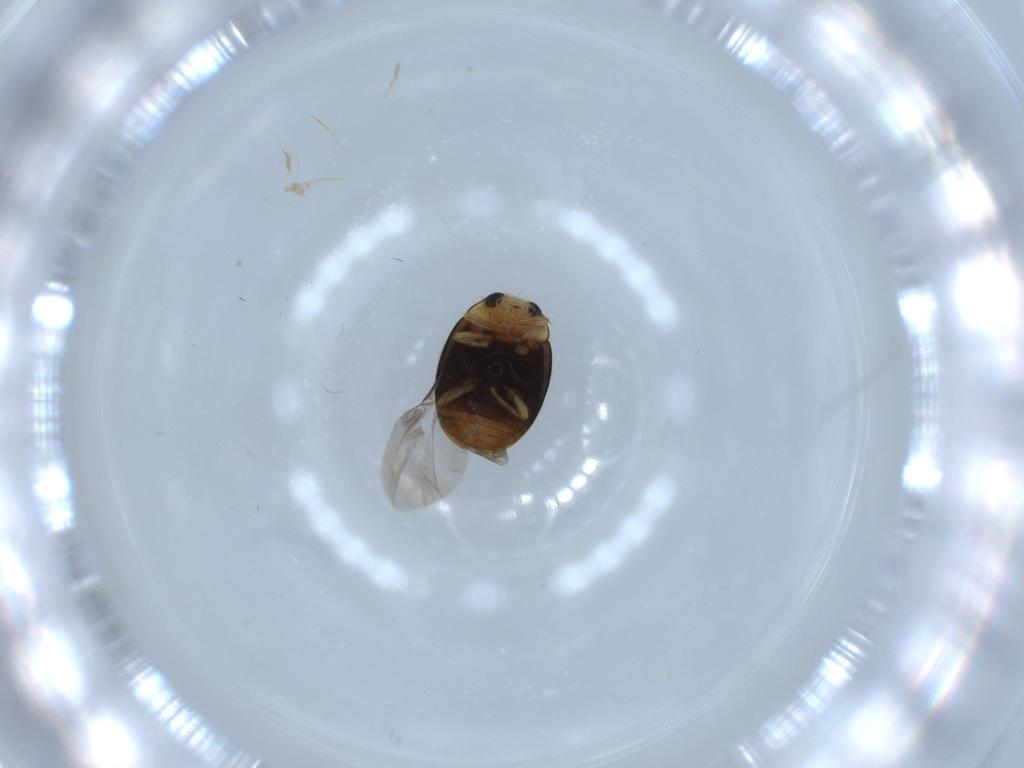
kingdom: Animalia
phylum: Arthropoda
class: Insecta
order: Coleoptera
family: Coccinellidae
